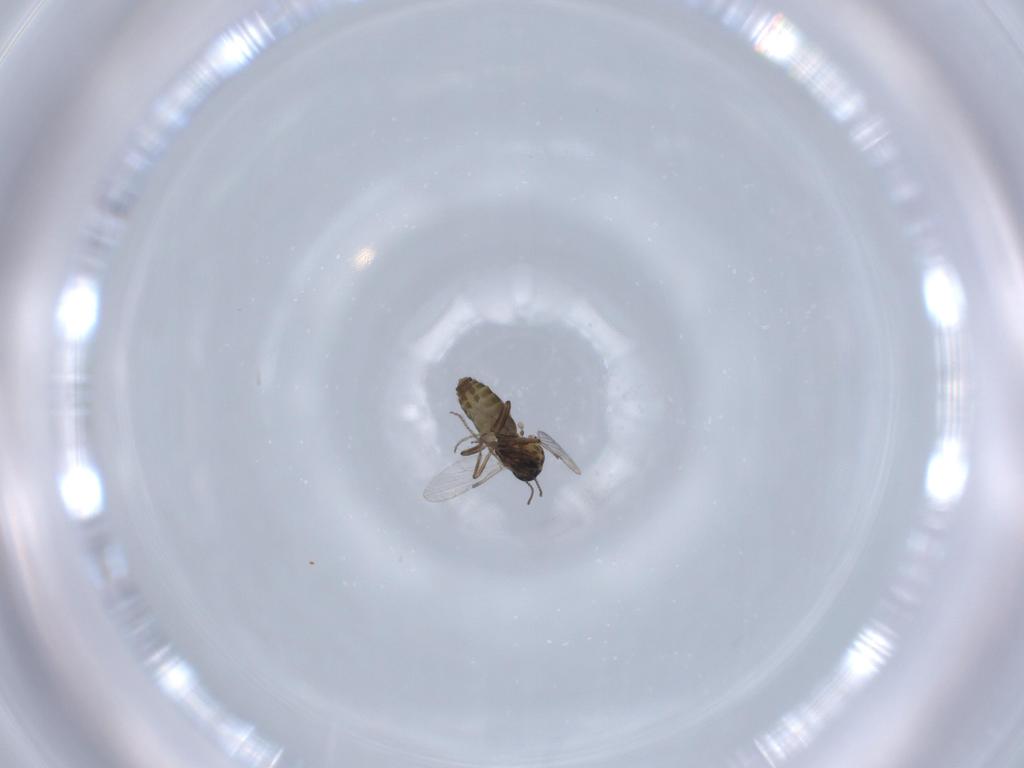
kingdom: Animalia
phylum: Arthropoda
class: Insecta
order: Diptera
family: Ceratopogonidae
